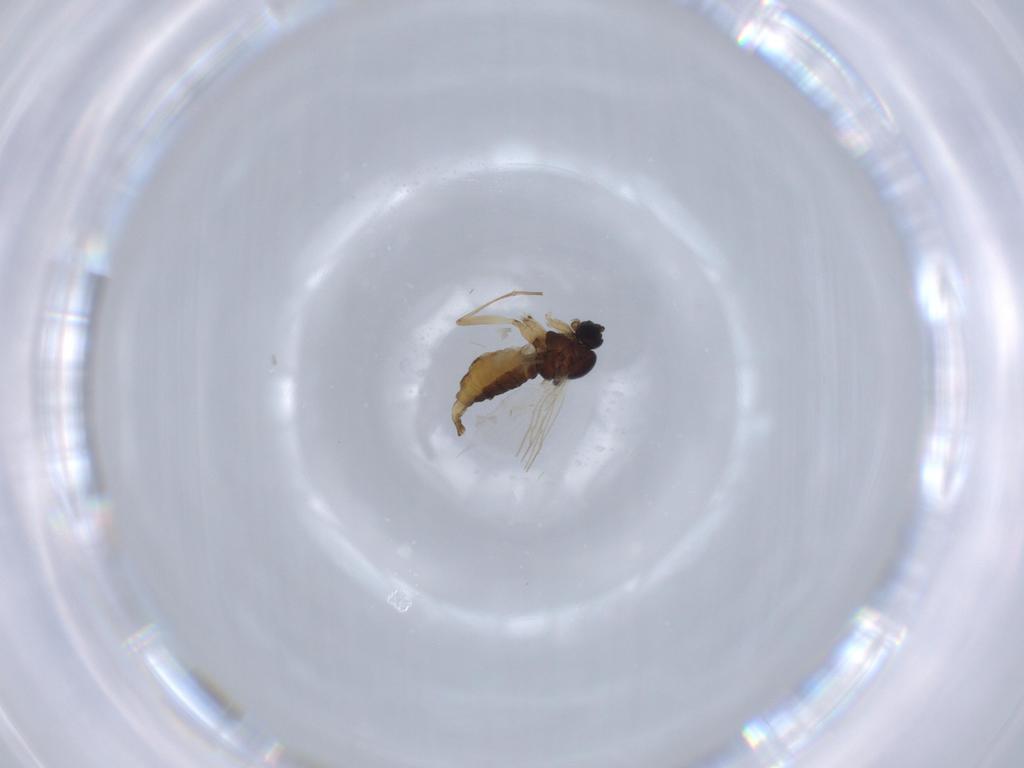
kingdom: Animalia
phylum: Arthropoda
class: Insecta
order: Diptera
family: Sciaridae
